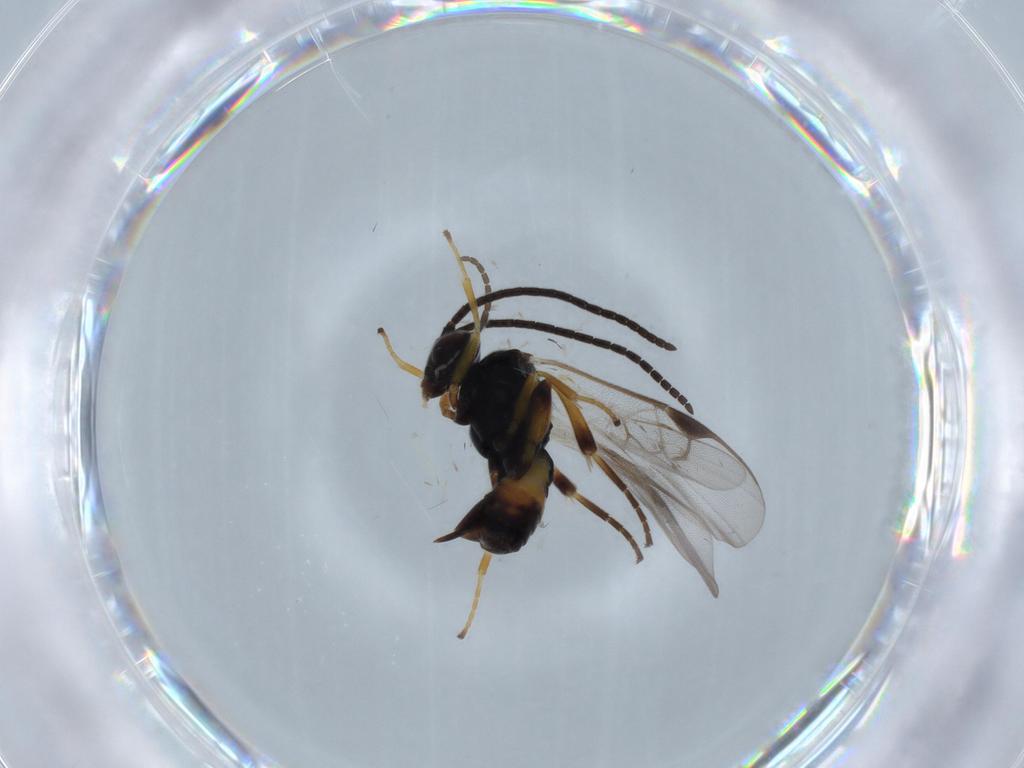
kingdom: Animalia
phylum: Arthropoda
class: Insecta
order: Hymenoptera
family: Braconidae
